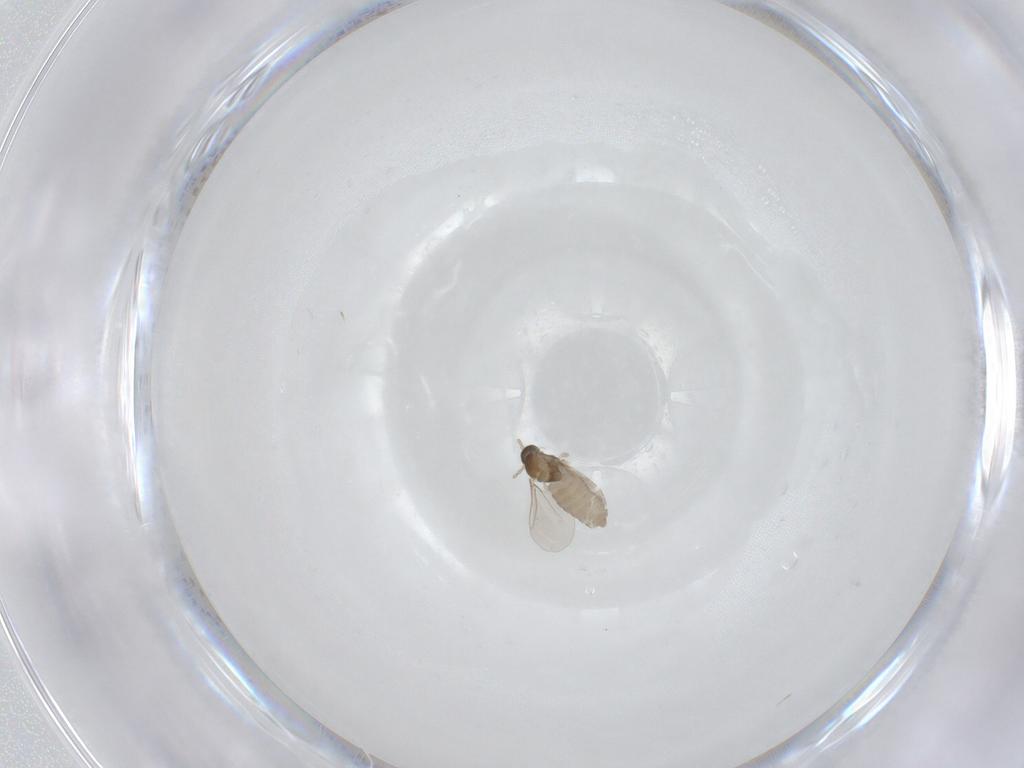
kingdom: Animalia
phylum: Arthropoda
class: Insecta
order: Diptera
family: Cecidomyiidae
